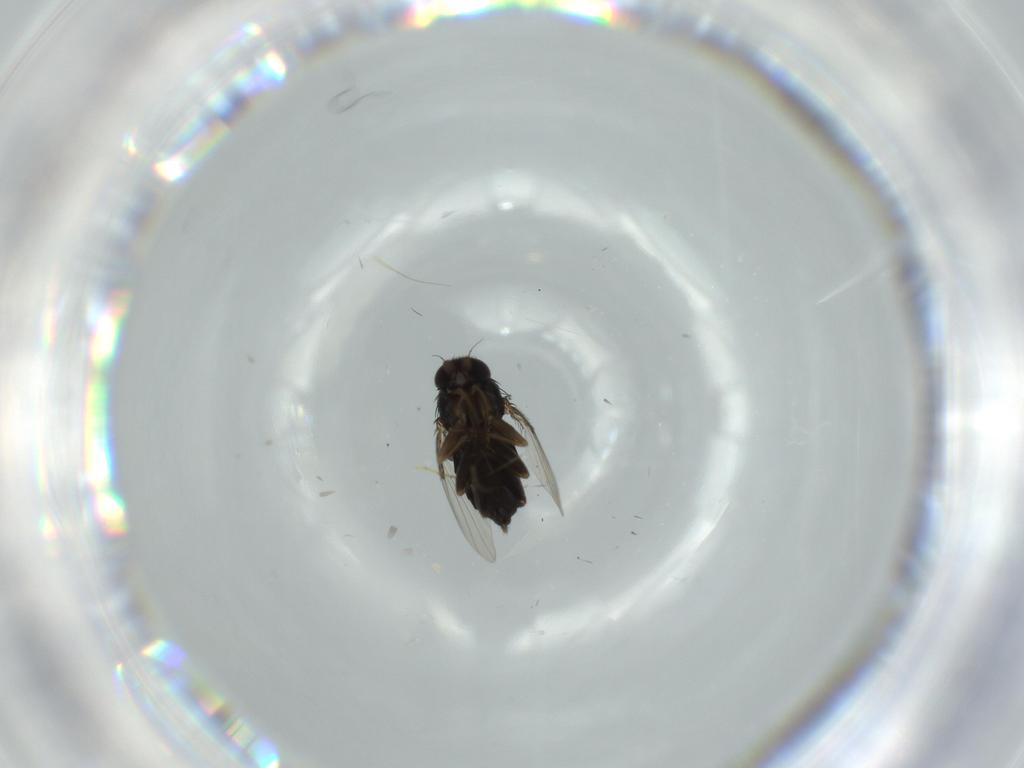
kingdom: Animalia
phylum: Arthropoda
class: Insecta
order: Diptera
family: Phoridae
